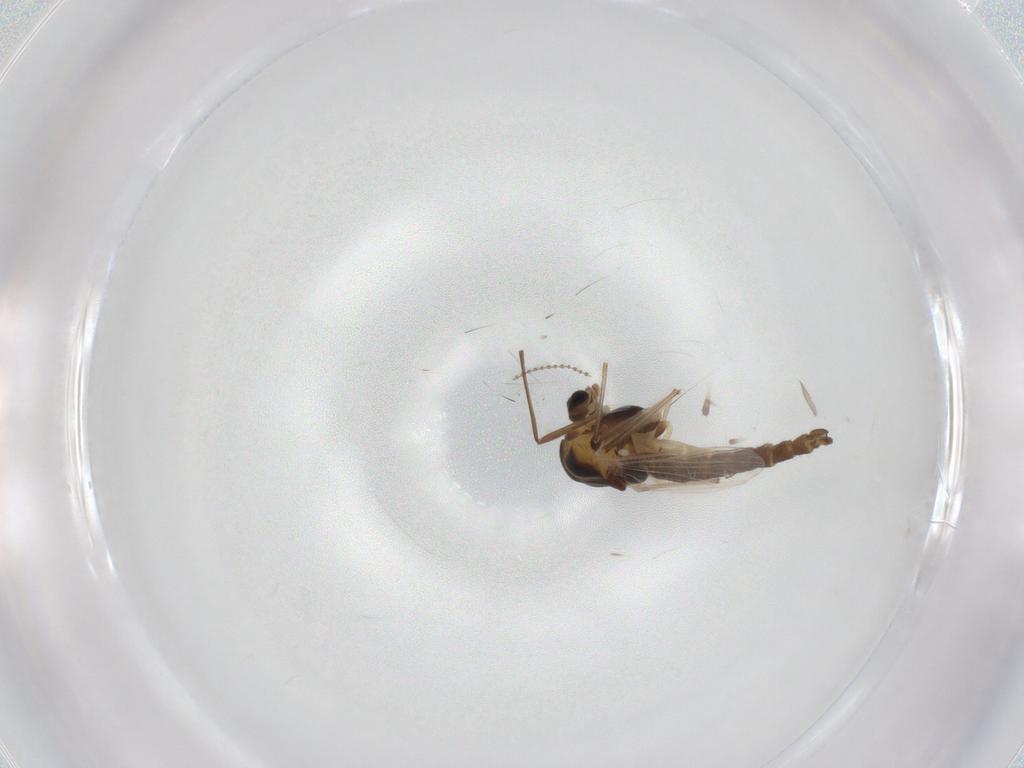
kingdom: Animalia
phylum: Arthropoda
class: Insecta
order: Diptera
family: Chironomidae
